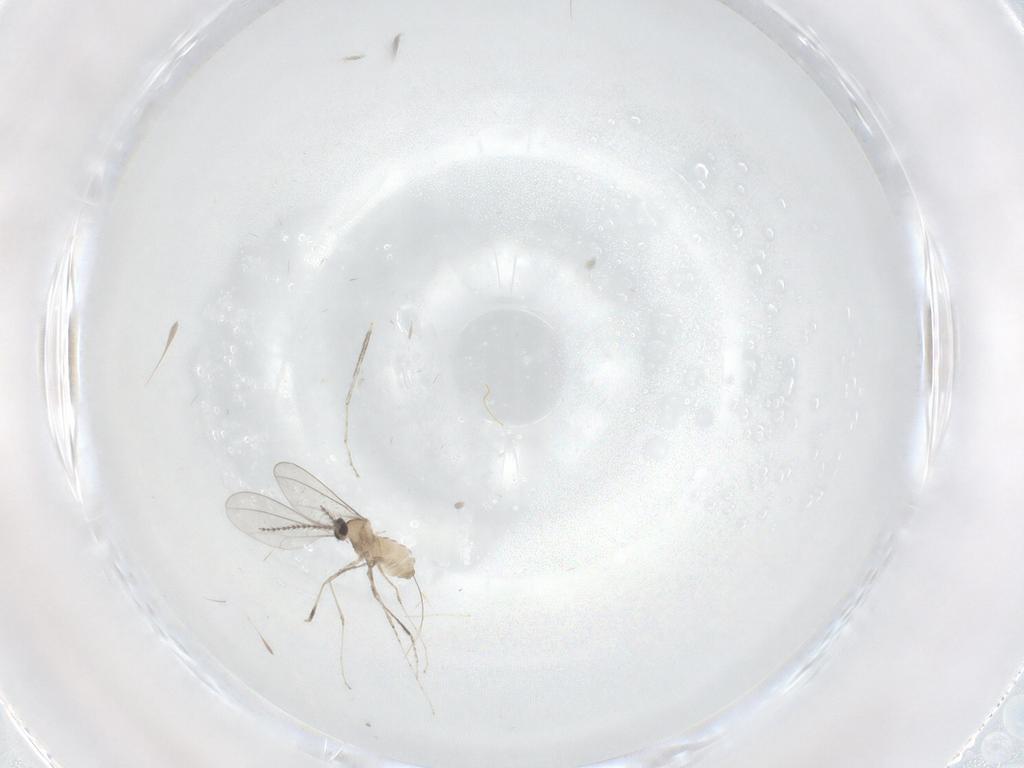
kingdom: Animalia
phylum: Arthropoda
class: Insecta
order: Diptera
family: Cecidomyiidae
